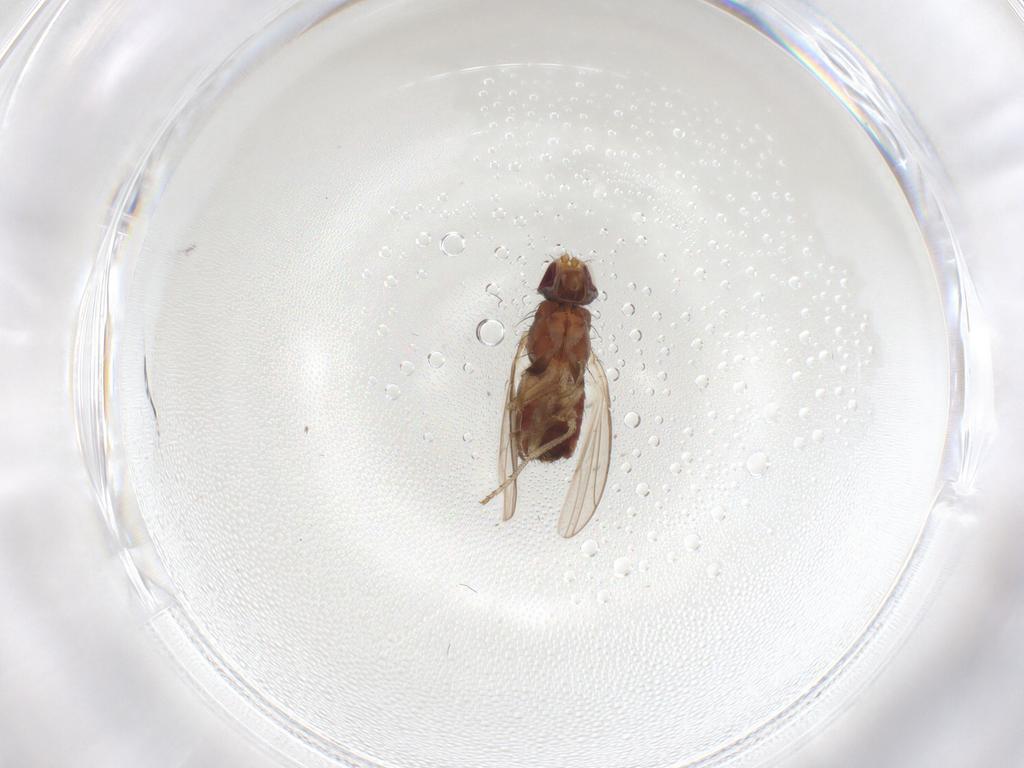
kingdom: Animalia
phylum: Arthropoda
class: Insecta
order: Diptera
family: Heleomyzidae
